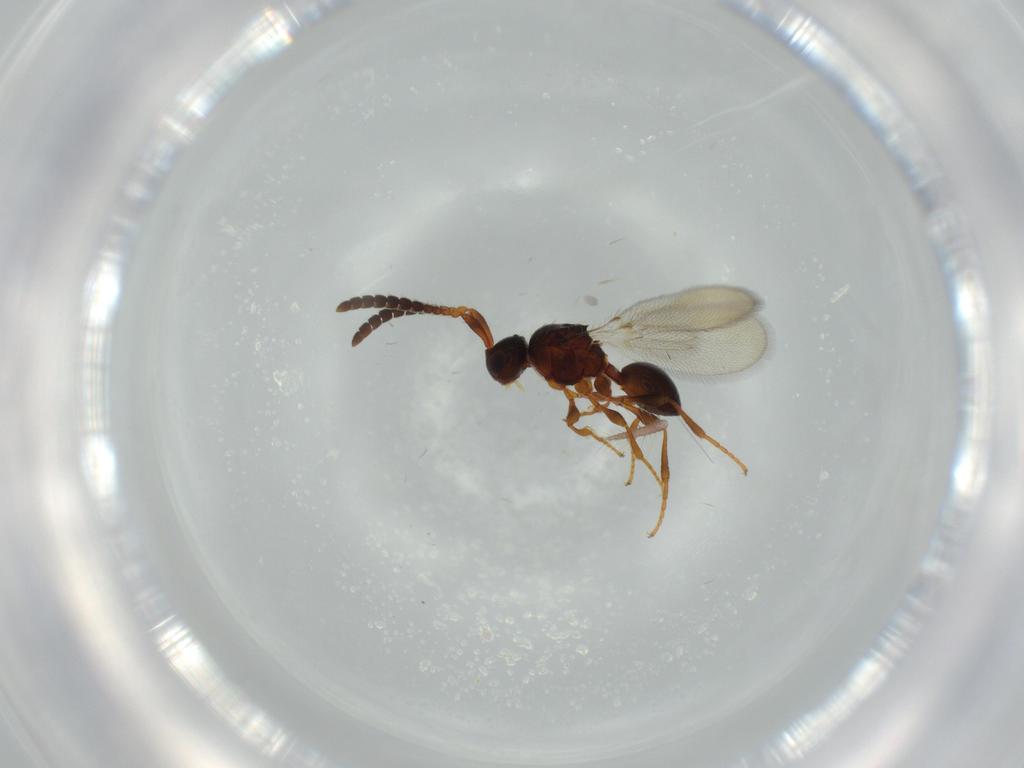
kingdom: Animalia
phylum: Arthropoda
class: Insecta
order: Hymenoptera
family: Diapriidae
